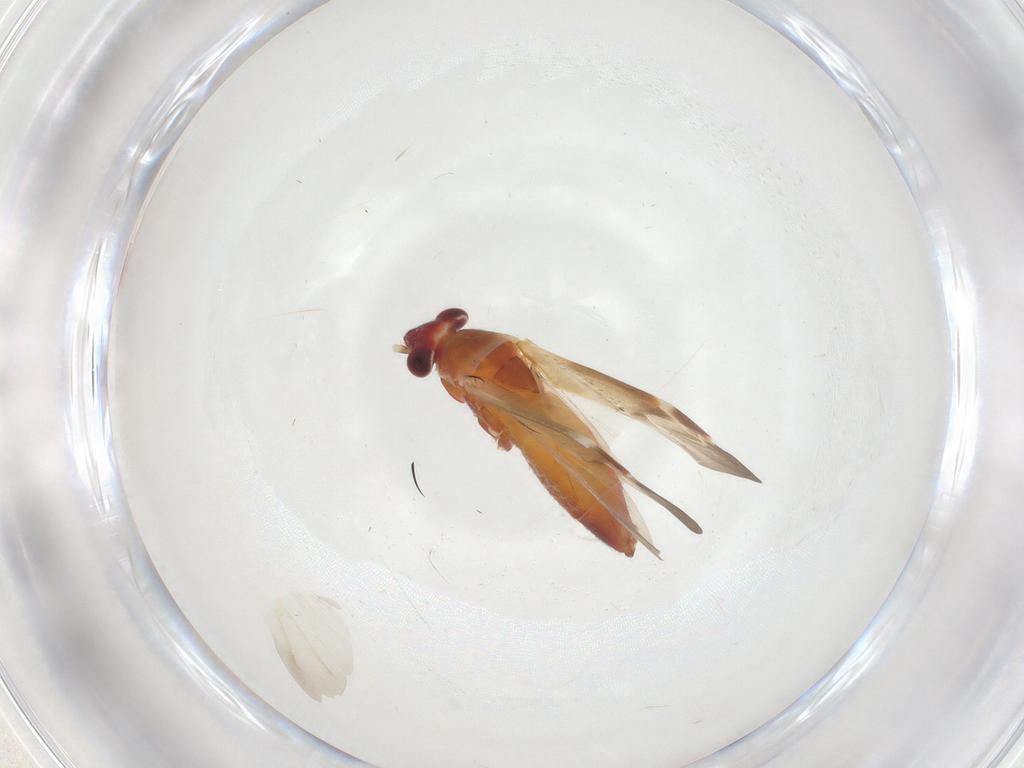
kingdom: Animalia
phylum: Arthropoda
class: Insecta
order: Hemiptera
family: Miridae
